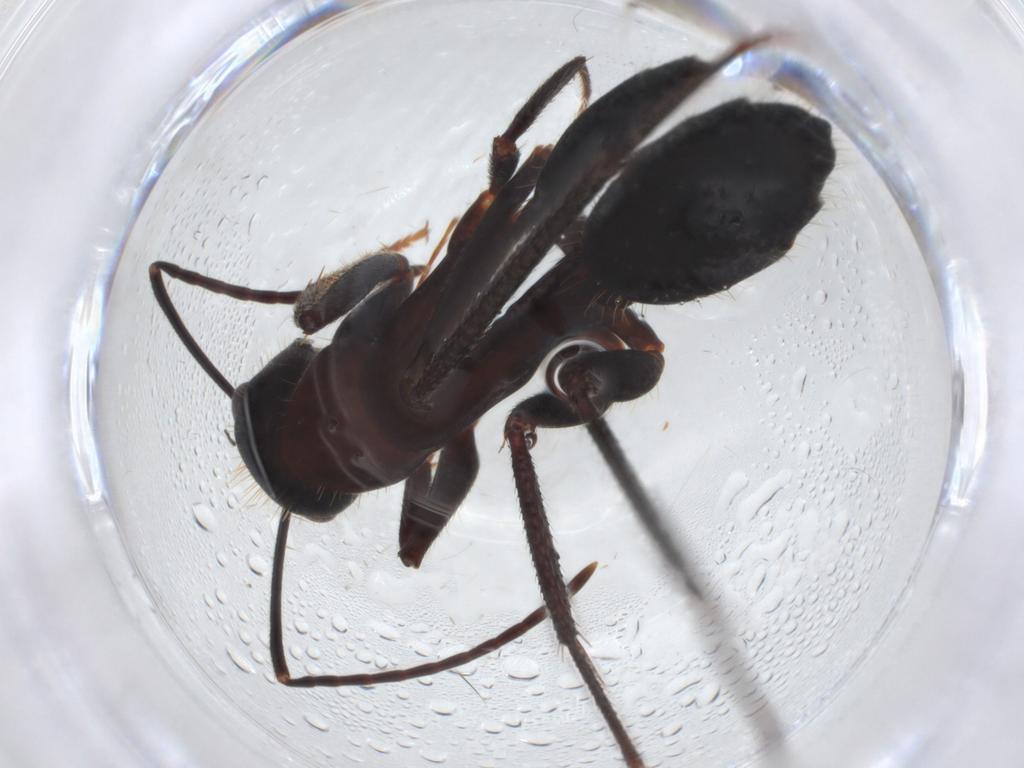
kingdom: Animalia
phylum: Arthropoda
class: Insecta
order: Hymenoptera
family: Formicidae
